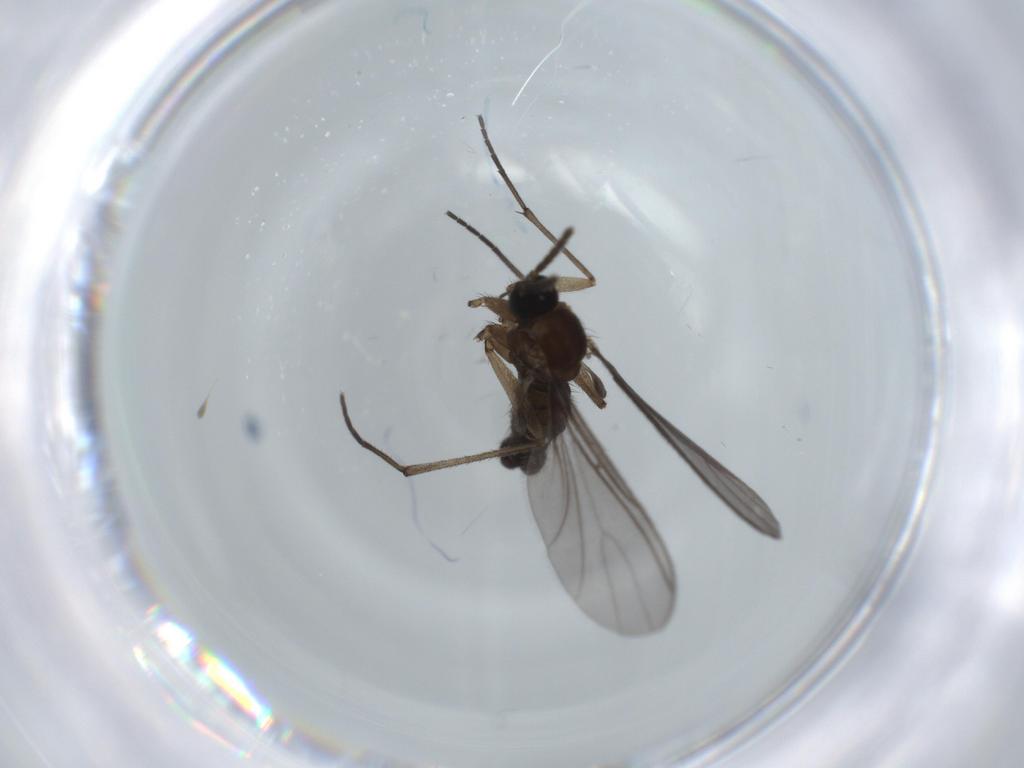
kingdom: Animalia
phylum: Arthropoda
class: Insecta
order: Diptera
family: Sciaridae
